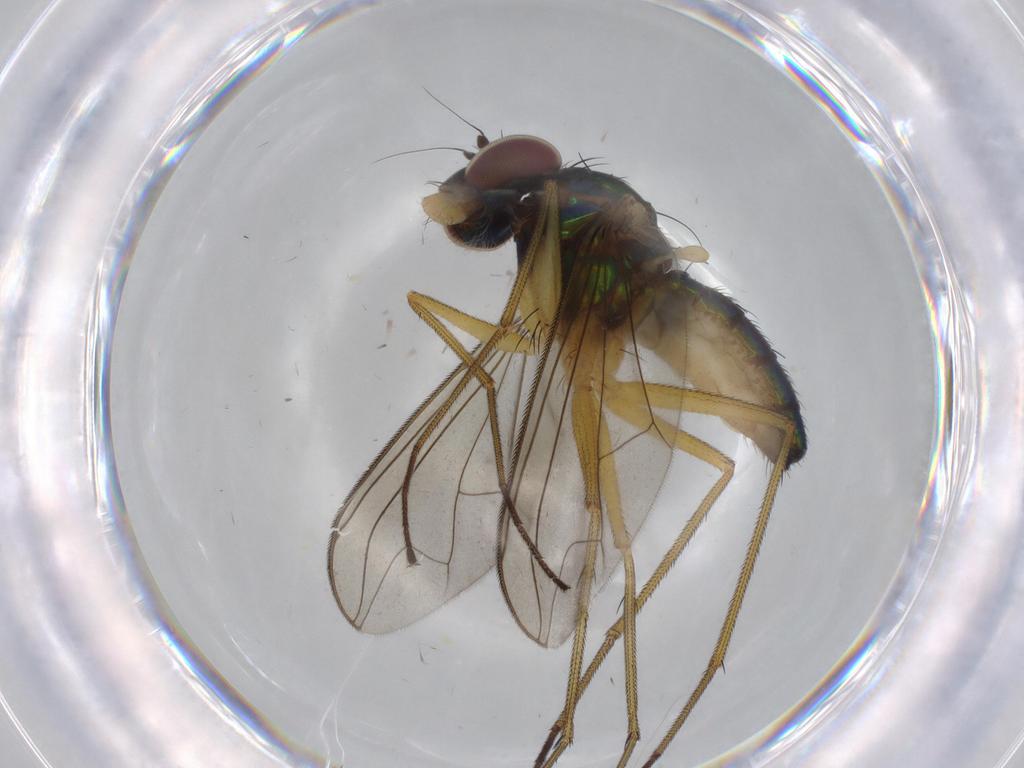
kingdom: Animalia
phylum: Arthropoda
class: Insecta
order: Diptera
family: Dolichopodidae
